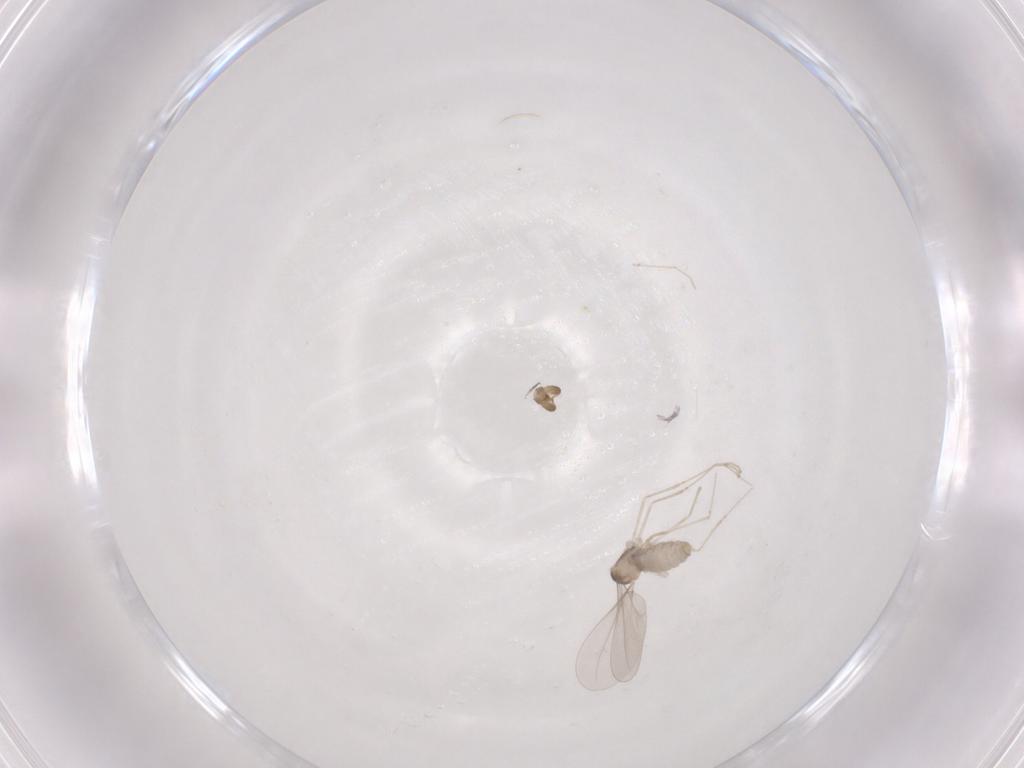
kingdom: Animalia
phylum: Arthropoda
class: Insecta
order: Diptera
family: Ceratopogonidae
